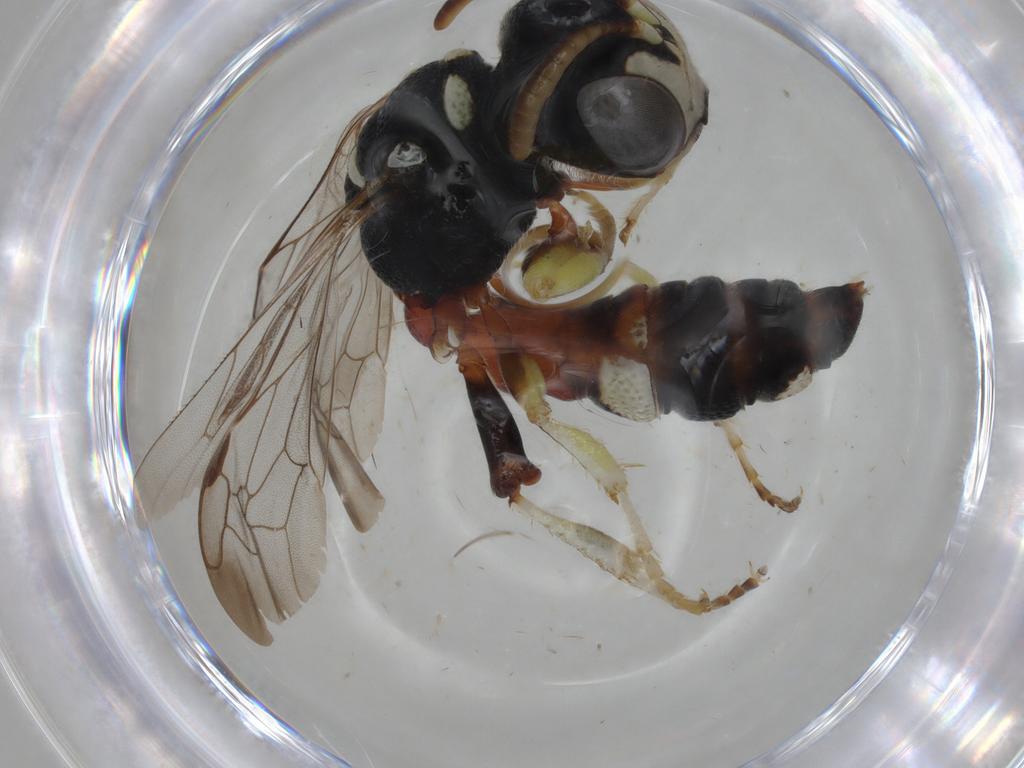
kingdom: Animalia
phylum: Arthropoda
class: Insecta
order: Hymenoptera
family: Philanthidae
